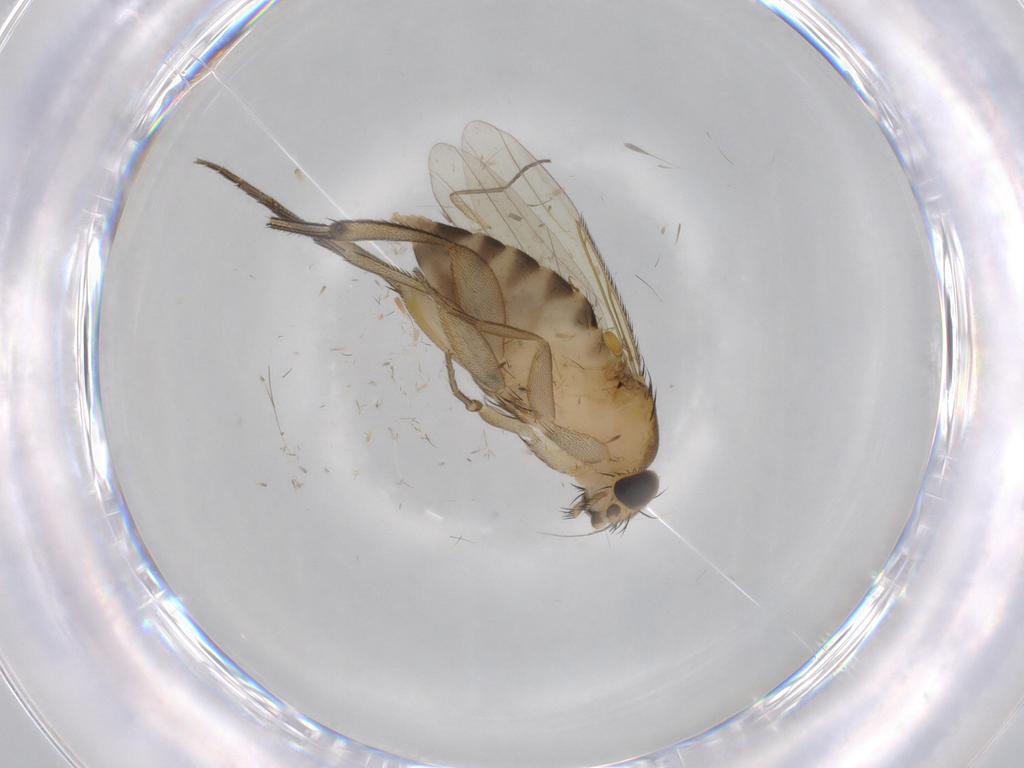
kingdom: Animalia
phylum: Arthropoda
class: Insecta
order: Diptera
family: Phoridae
